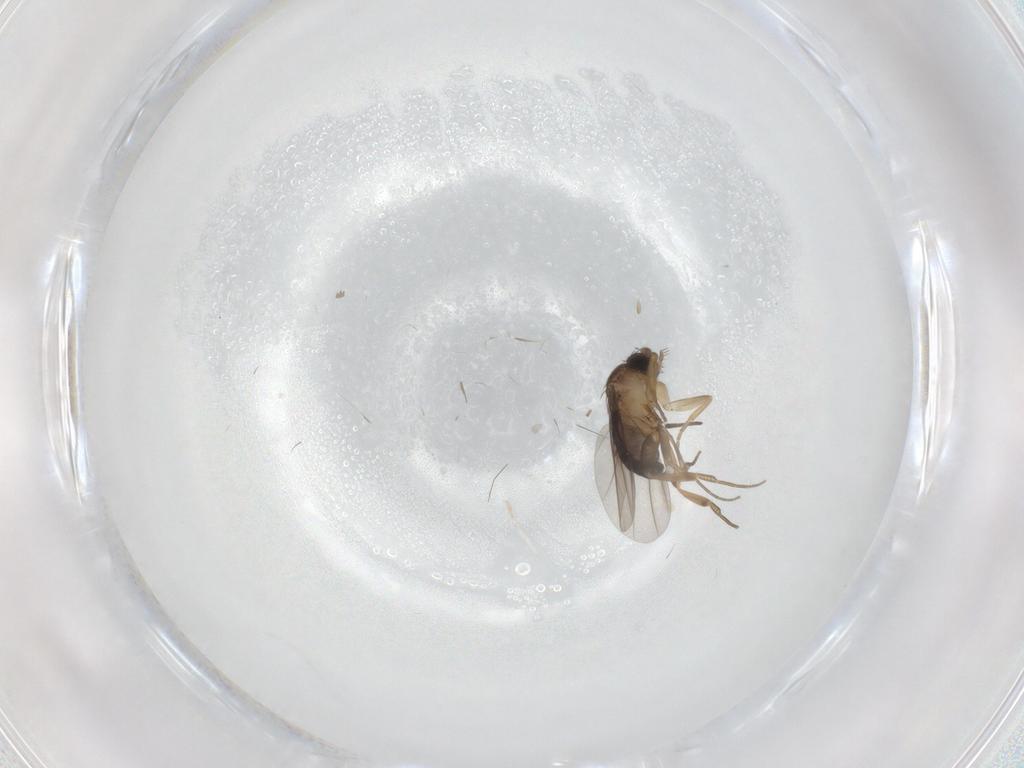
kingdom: Animalia
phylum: Arthropoda
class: Insecta
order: Diptera
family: Cecidomyiidae
